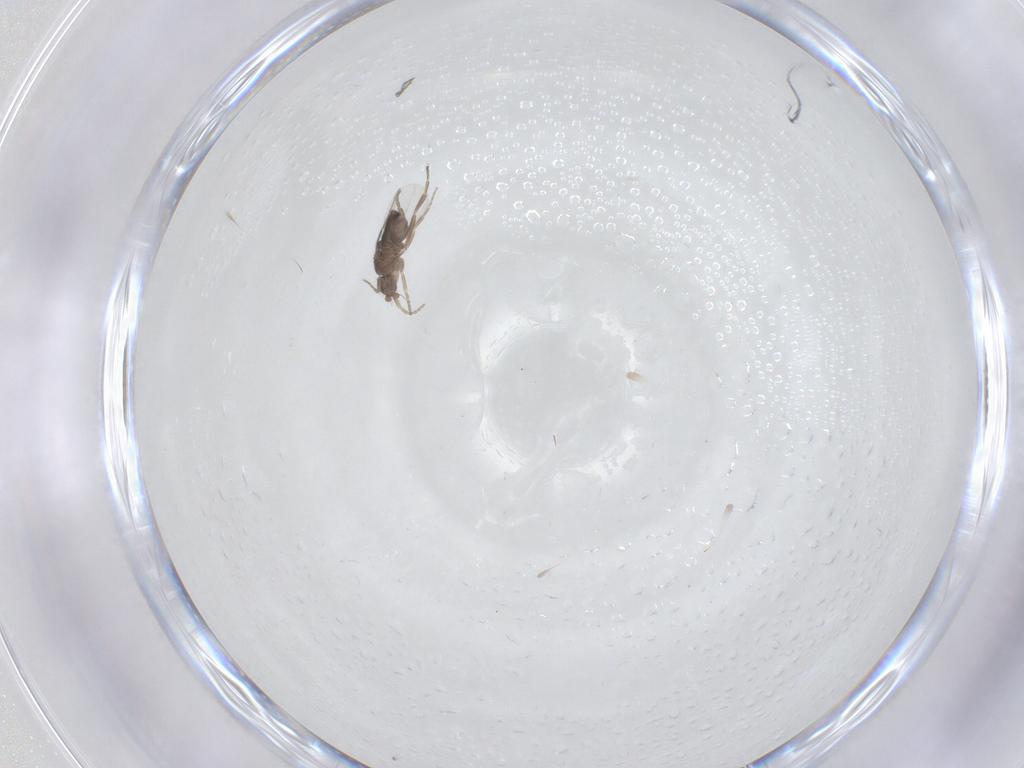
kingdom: Animalia
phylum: Arthropoda
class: Insecta
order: Diptera
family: Phoridae
